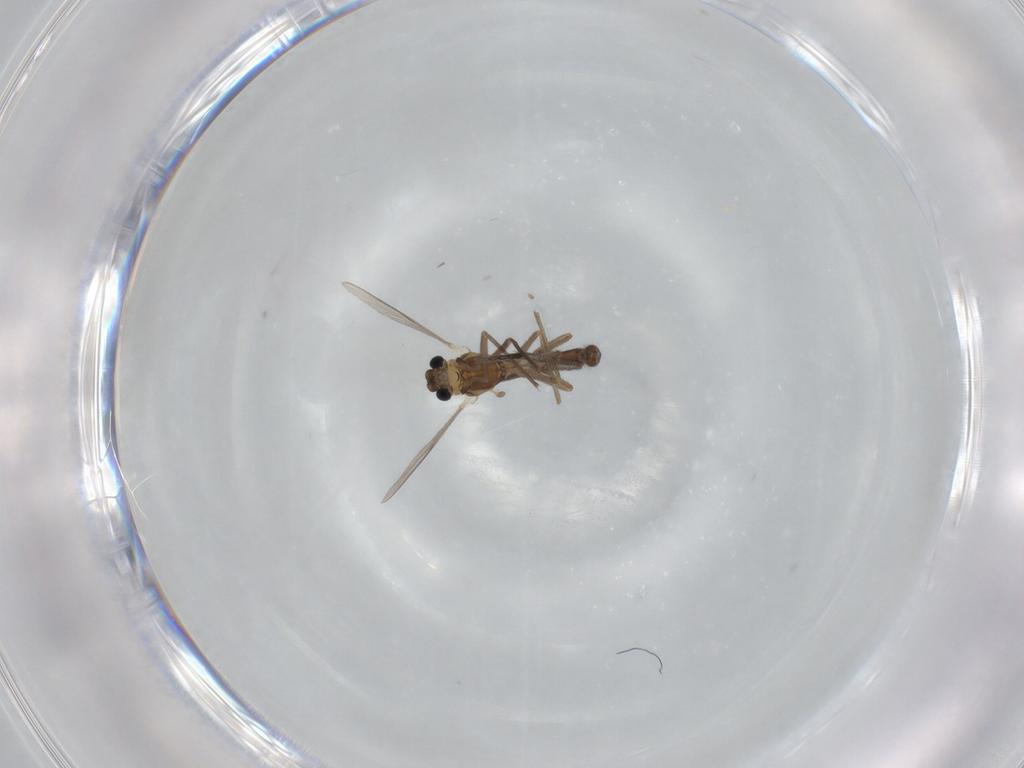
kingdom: Animalia
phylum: Arthropoda
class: Insecta
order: Diptera
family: Chironomidae
